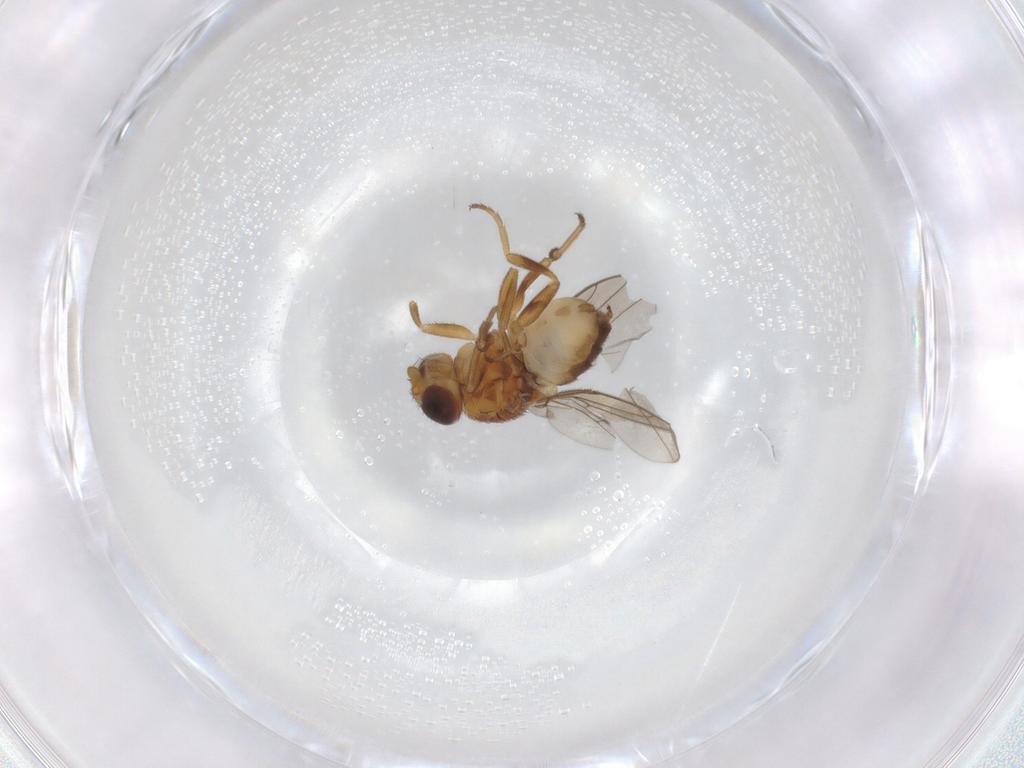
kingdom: Animalia
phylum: Arthropoda
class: Insecta
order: Diptera
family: Chloropidae
